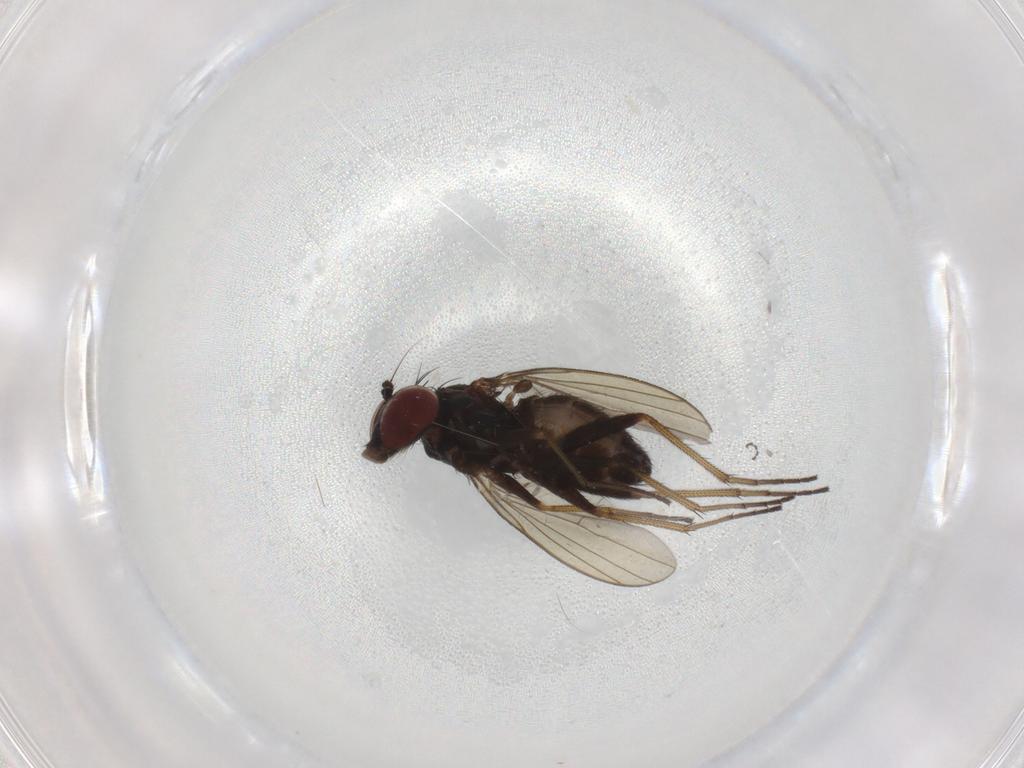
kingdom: Animalia
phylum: Arthropoda
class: Insecta
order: Diptera
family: Dolichopodidae
